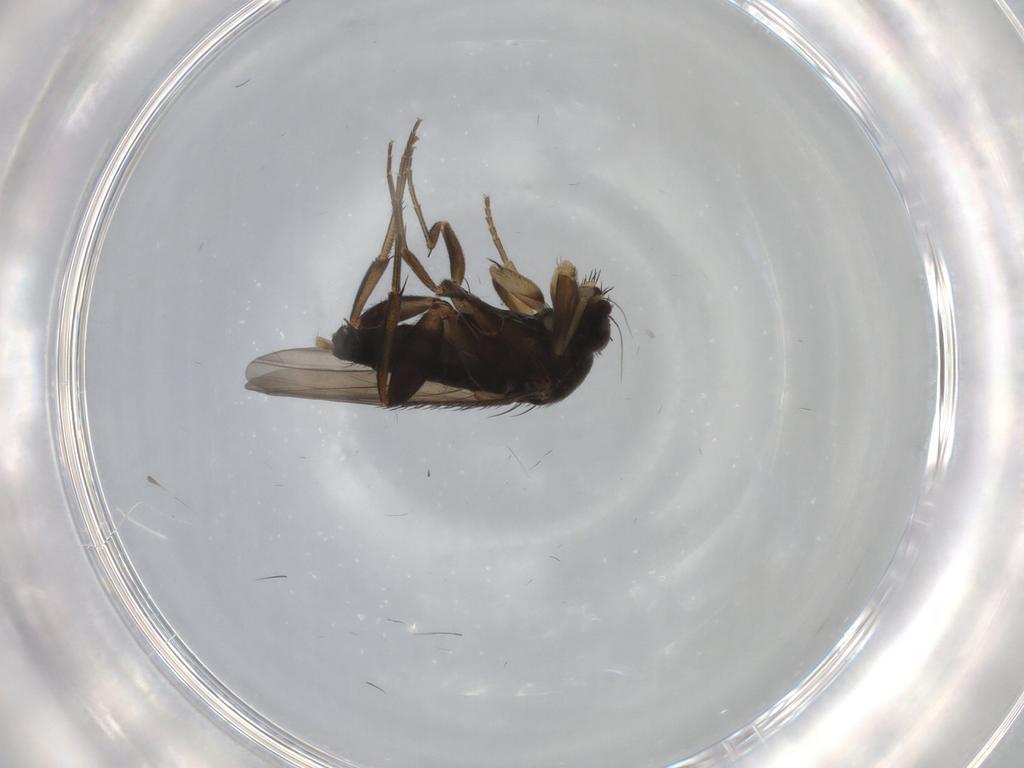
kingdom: Animalia
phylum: Arthropoda
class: Insecta
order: Diptera
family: Phoridae
